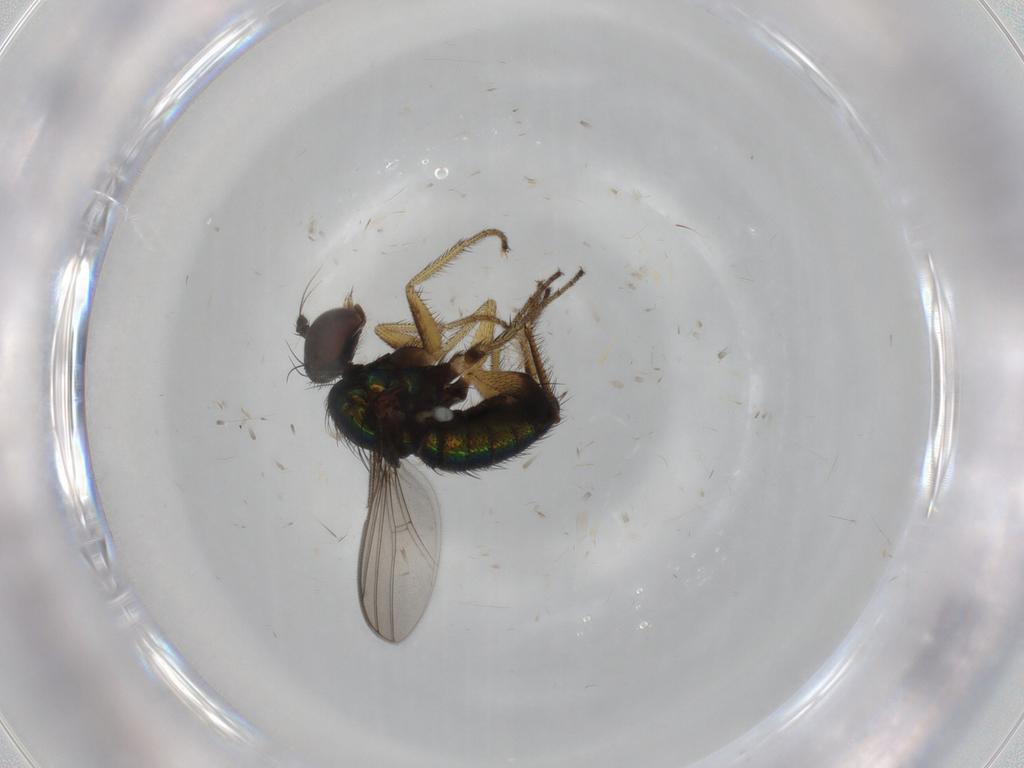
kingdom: Animalia
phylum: Arthropoda
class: Insecta
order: Diptera
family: Dolichopodidae
